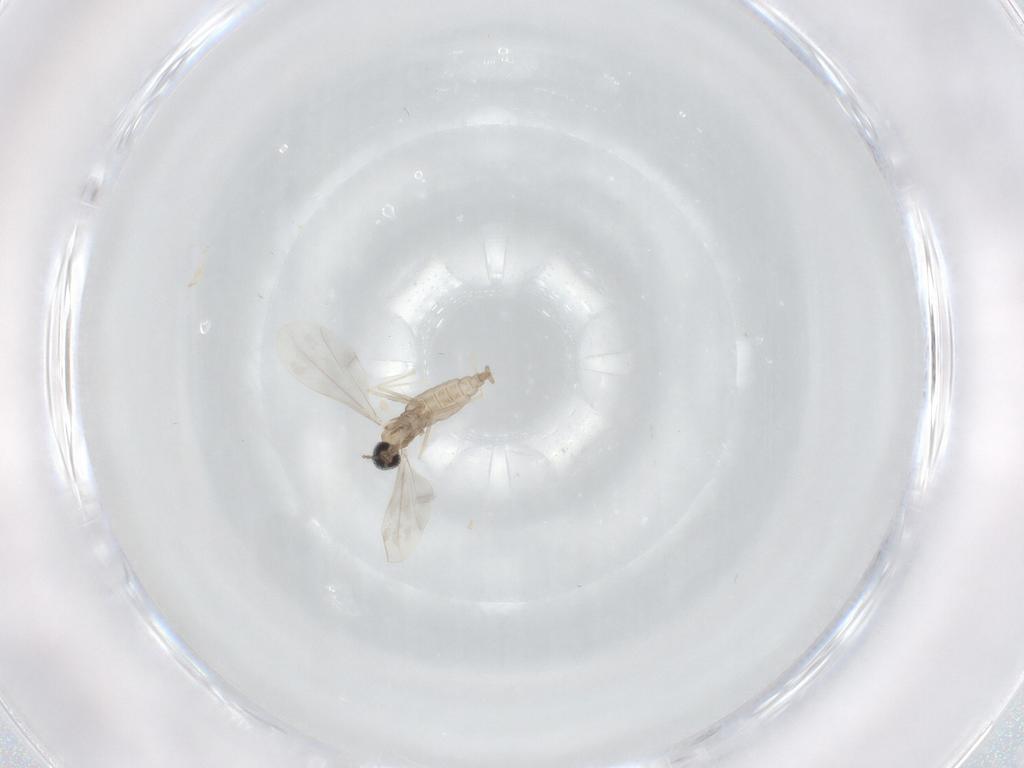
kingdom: Animalia
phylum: Arthropoda
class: Insecta
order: Diptera
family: Cecidomyiidae
